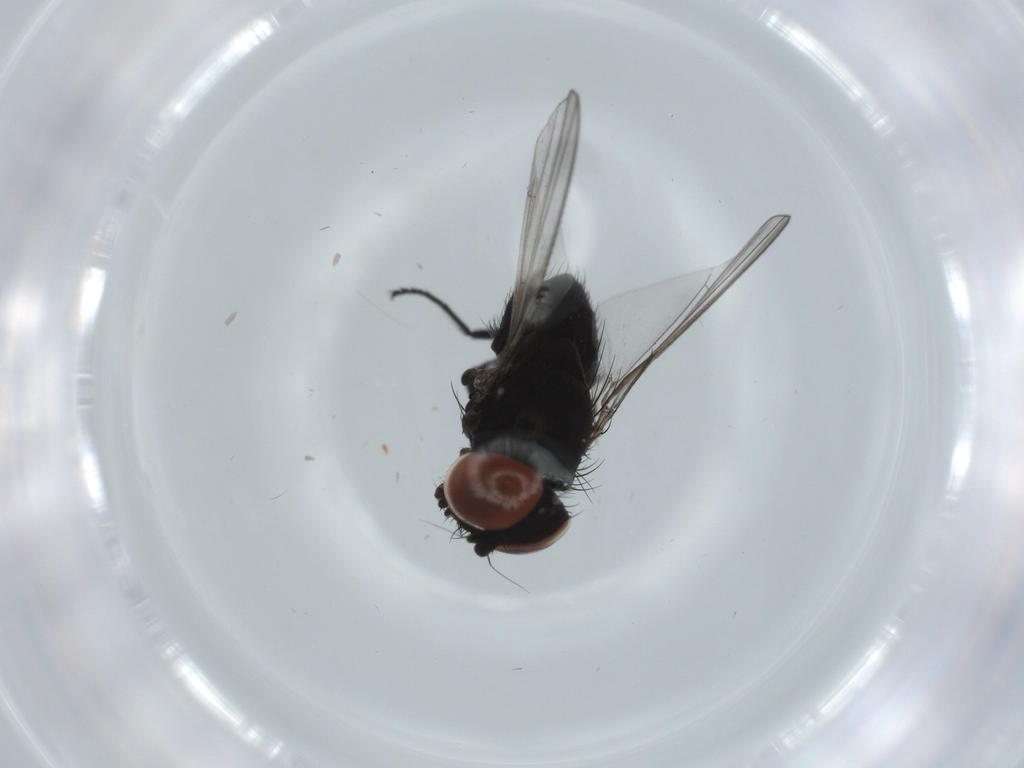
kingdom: Animalia
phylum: Arthropoda
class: Insecta
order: Diptera
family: Milichiidae
